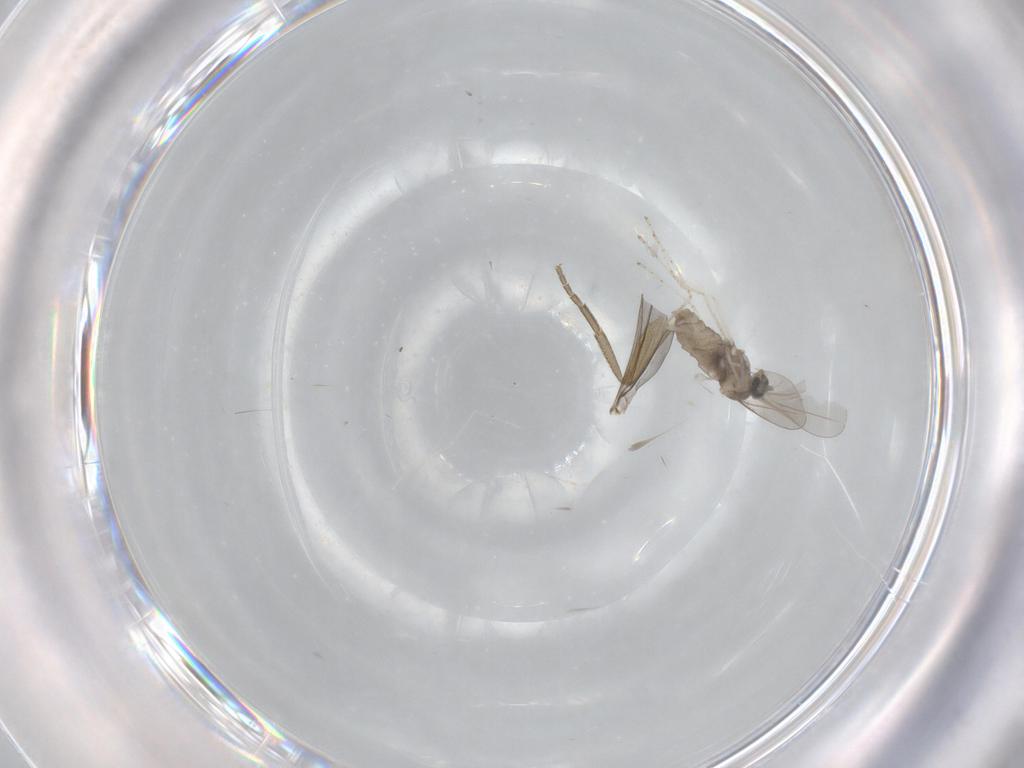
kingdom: Animalia
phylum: Arthropoda
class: Insecta
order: Diptera
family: Cecidomyiidae
